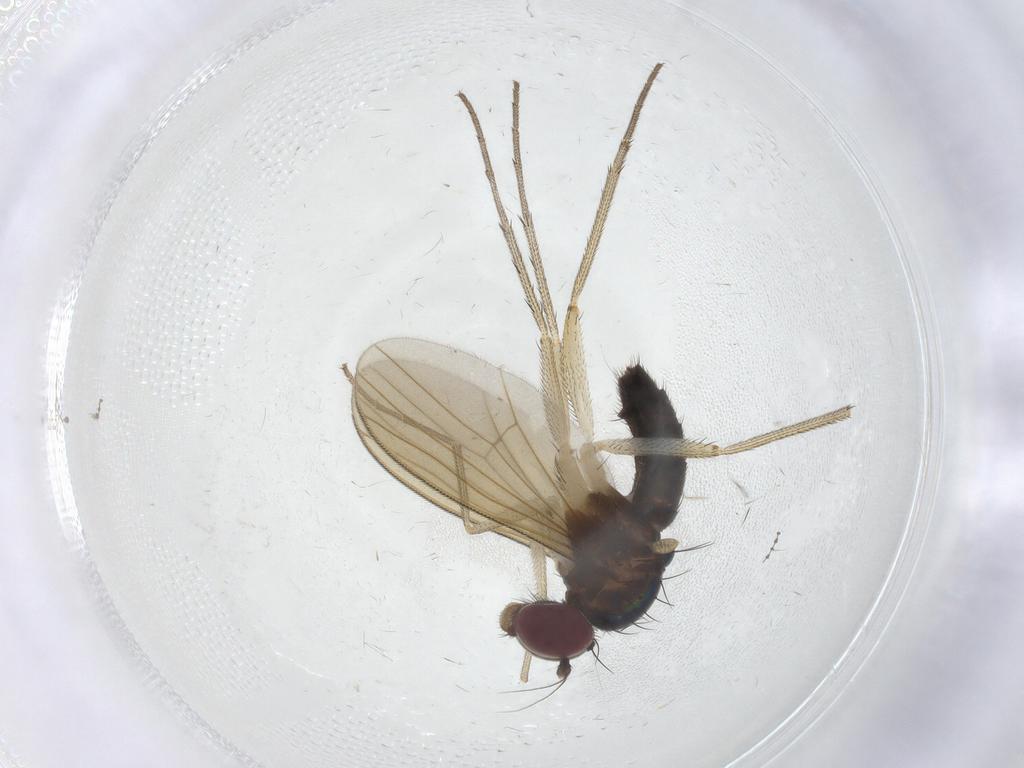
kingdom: Animalia
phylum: Arthropoda
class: Insecta
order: Diptera
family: Dolichopodidae
